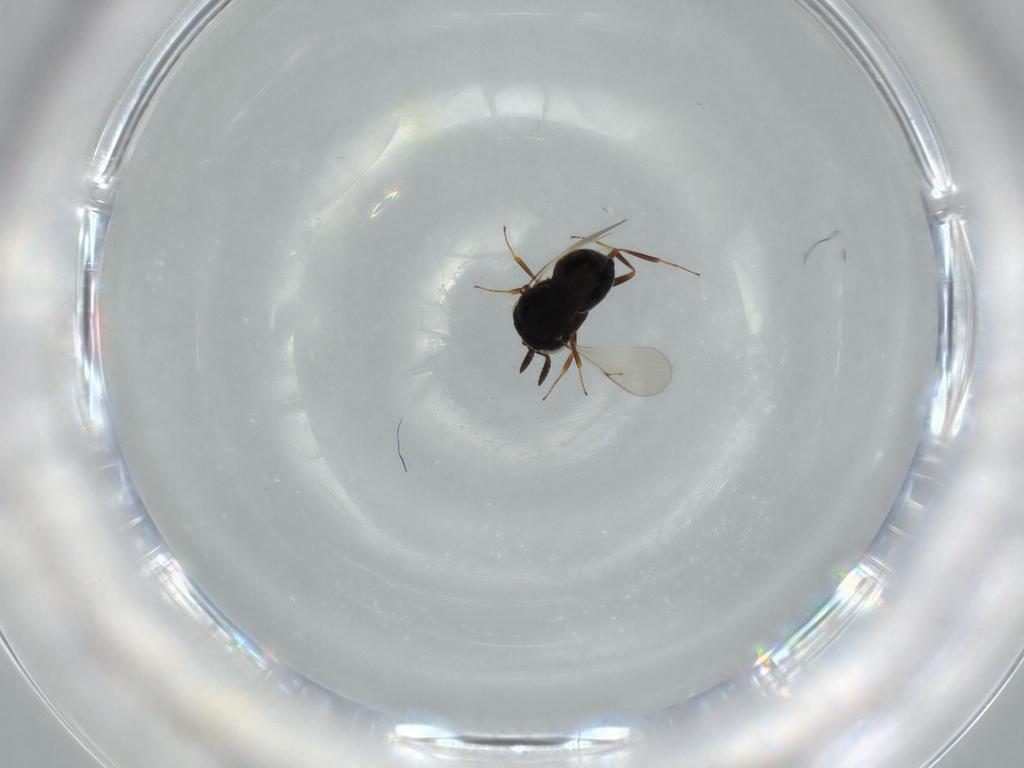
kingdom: Animalia
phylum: Arthropoda
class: Insecta
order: Hymenoptera
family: Scelionidae
